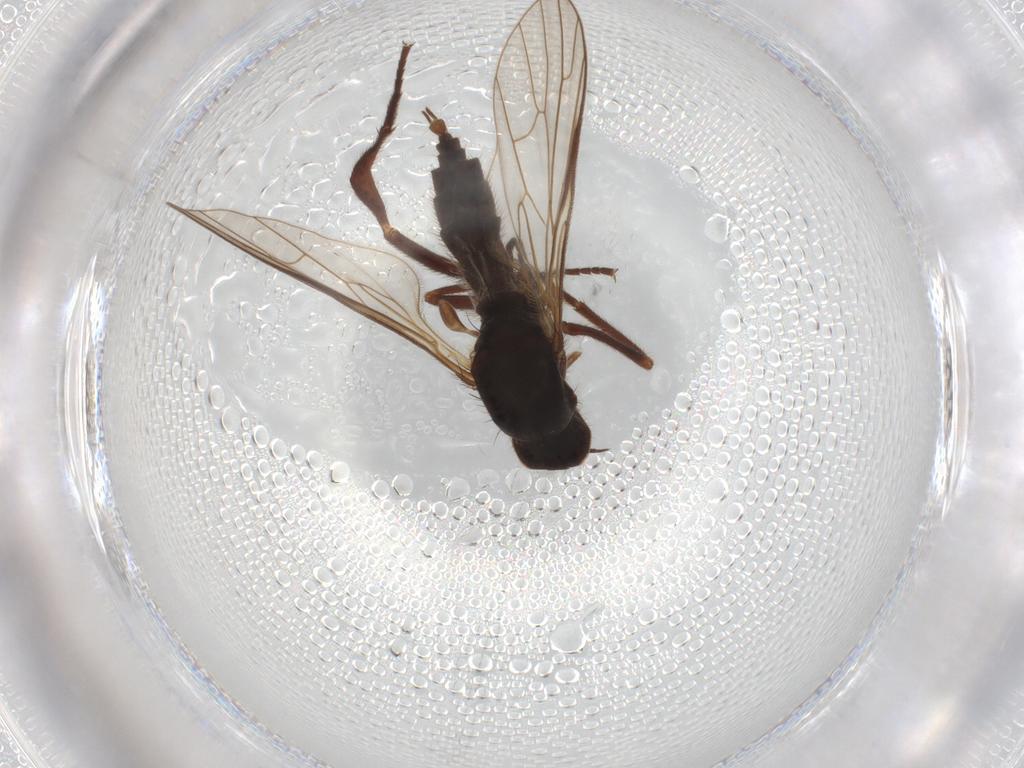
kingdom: Animalia
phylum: Arthropoda
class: Insecta
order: Diptera
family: Empididae
